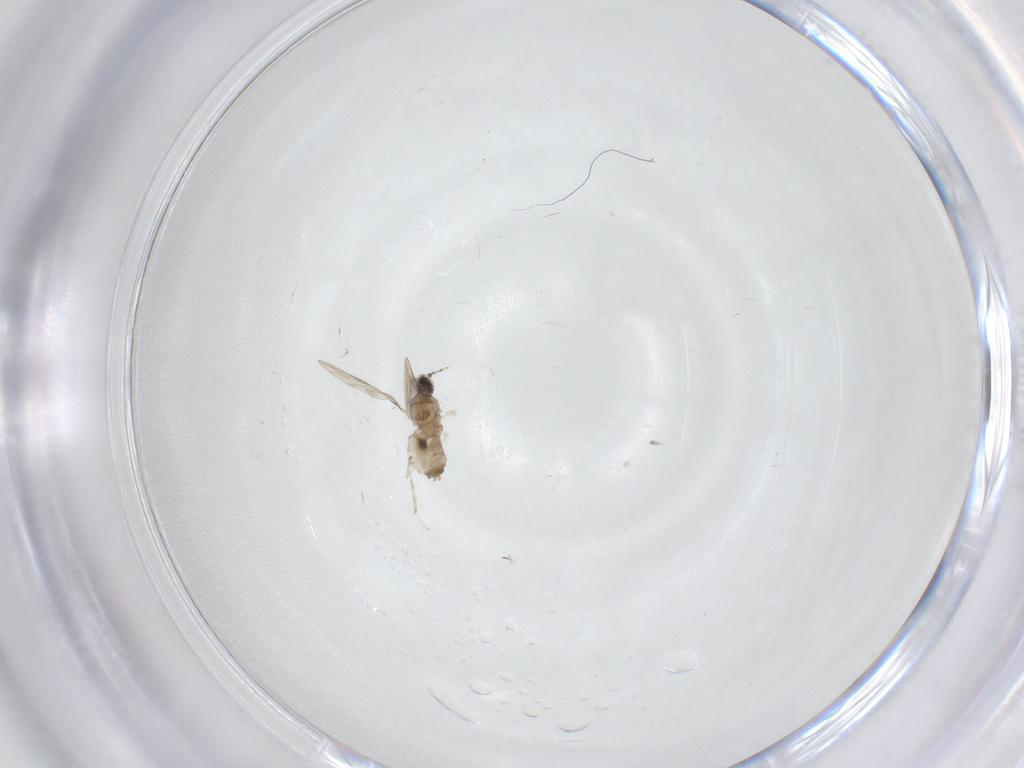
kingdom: Animalia
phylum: Arthropoda
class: Insecta
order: Diptera
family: Cecidomyiidae
